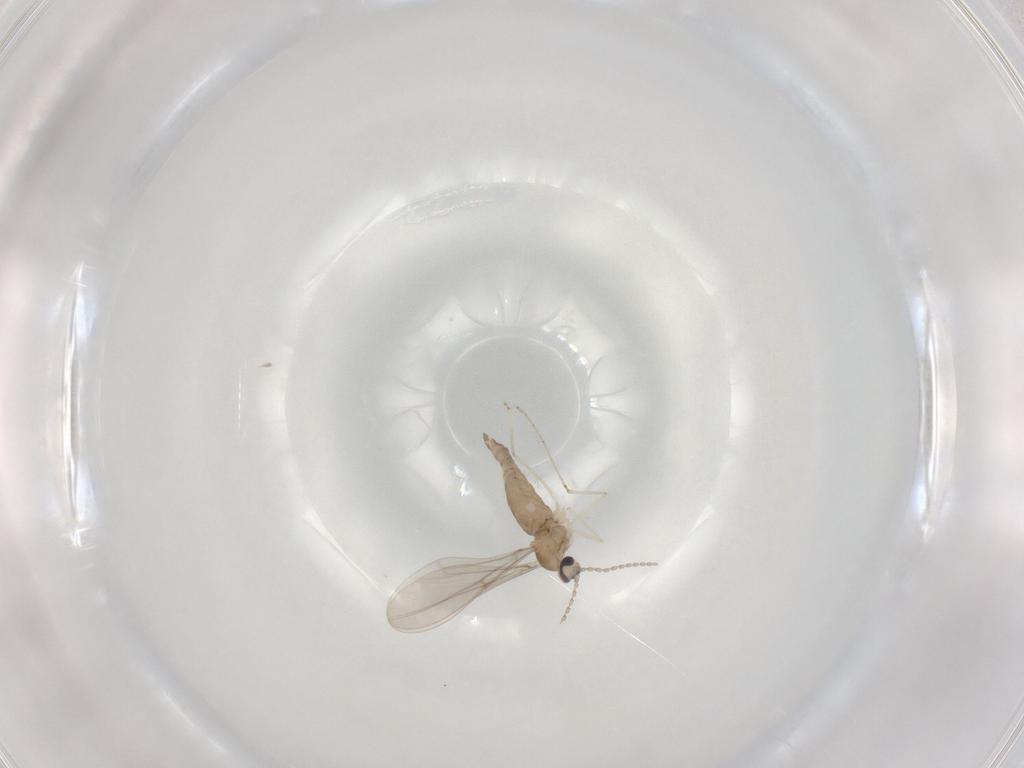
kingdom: Animalia
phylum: Arthropoda
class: Insecta
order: Diptera
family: Cecidomyiidae
